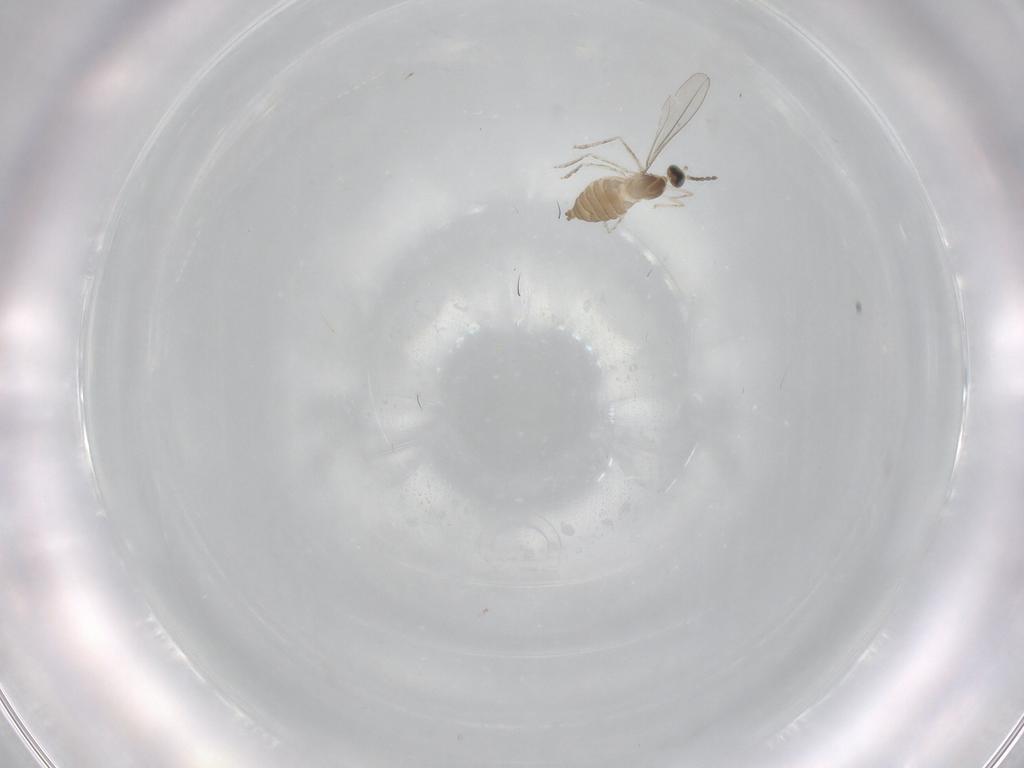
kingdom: Animalia
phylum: Arthropoda
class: Insecta
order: Diptera
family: Cecidomyiidae
